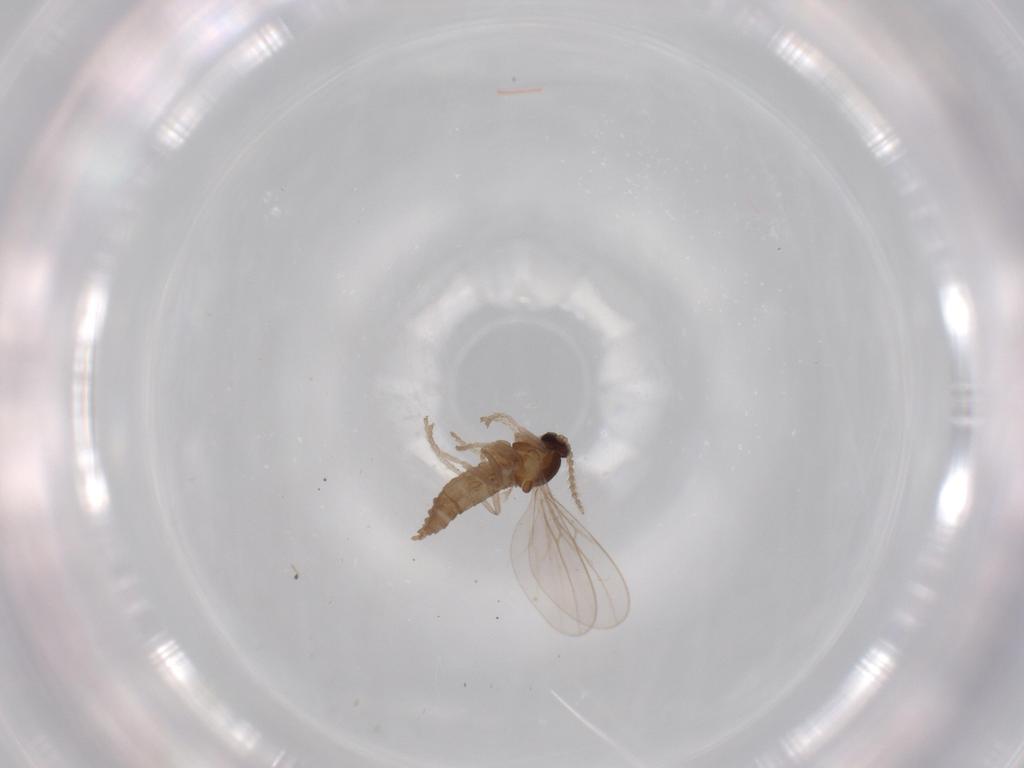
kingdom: Animalia
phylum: Arthropoda
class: Insecta
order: Diptera
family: Cecidomyiidae
